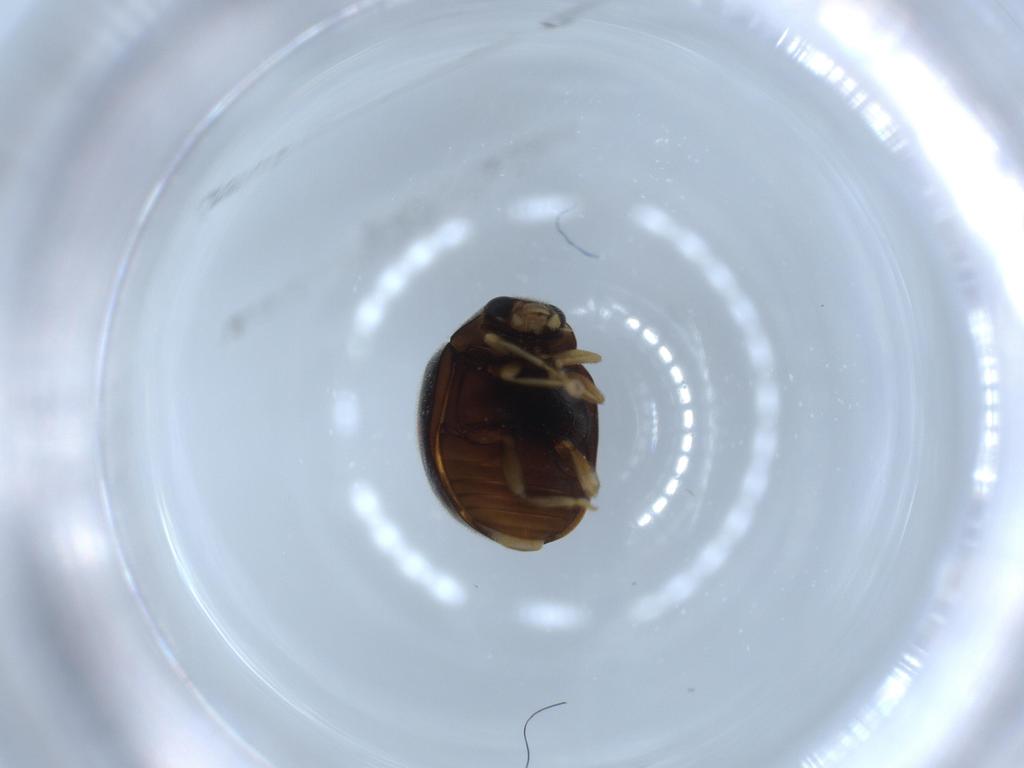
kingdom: Animalia
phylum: Arthropoda
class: Insecta
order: Coleoptera
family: Coccinellidae
